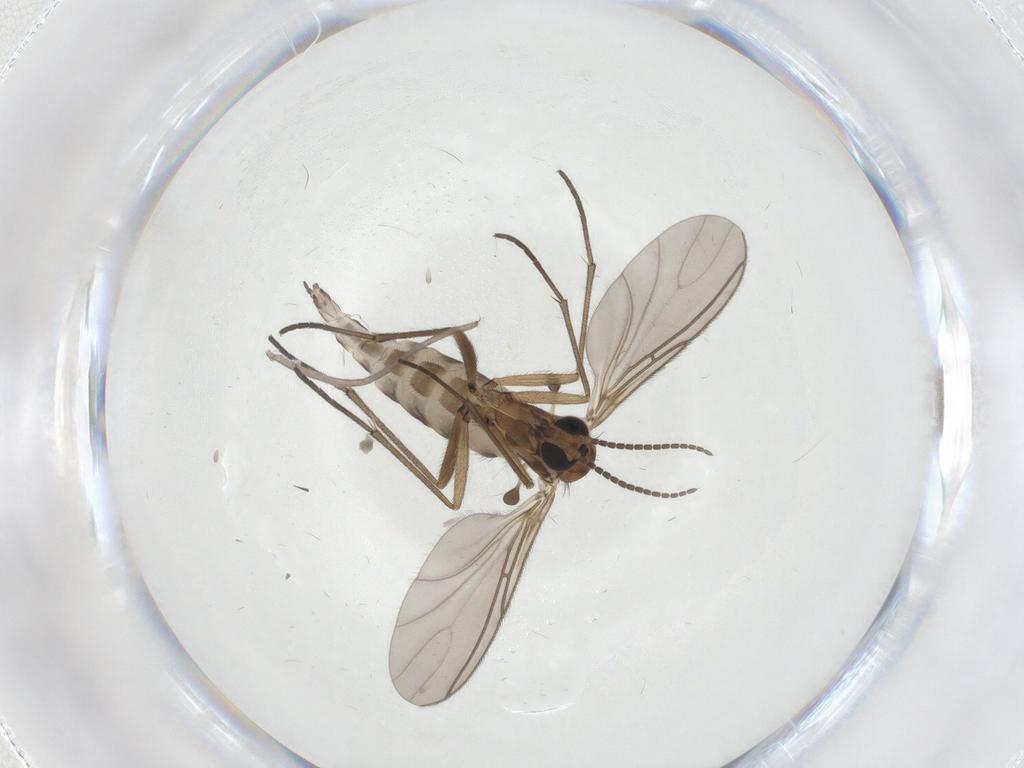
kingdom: Animalia
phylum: Arthropoda
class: Insecta
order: Diptera
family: Sciaridae
